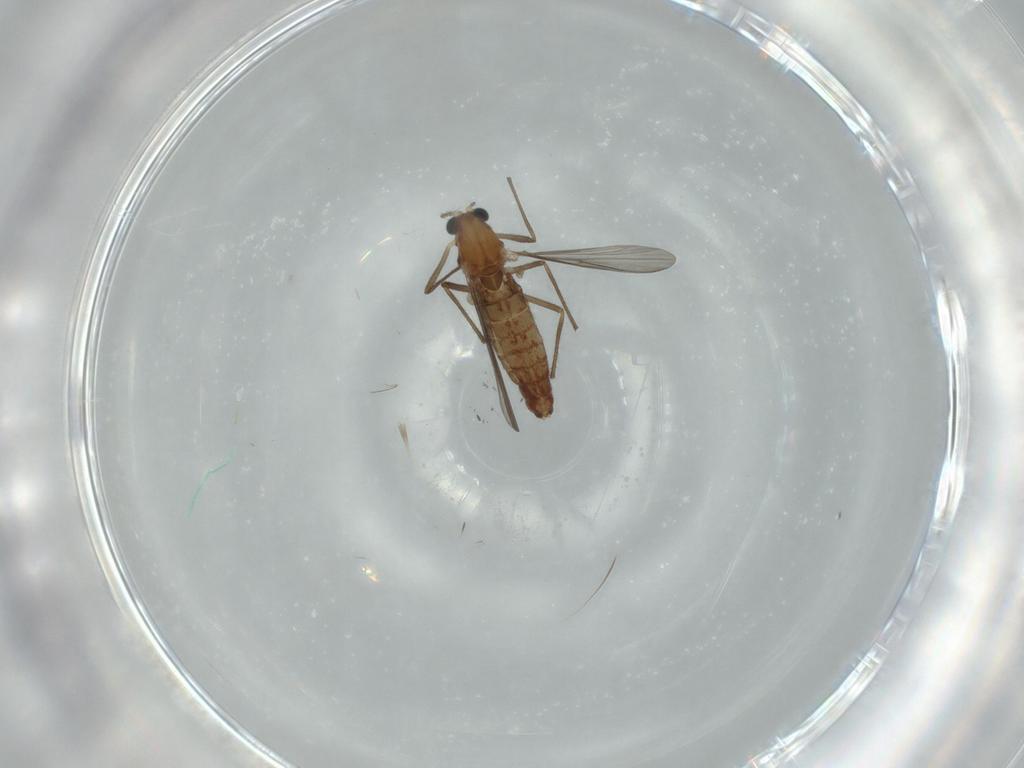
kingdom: Animalia
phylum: Arthropoda
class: Insecta
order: Diptera
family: Chironomidae
